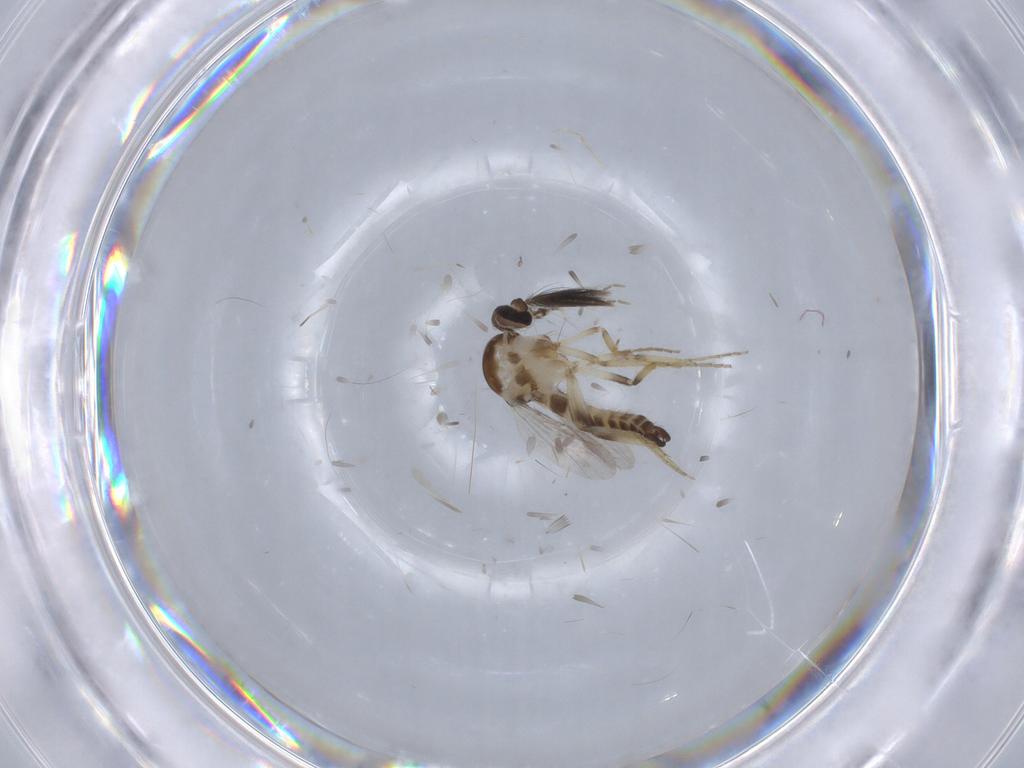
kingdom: Animalia
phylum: Arthropoda
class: Insecta
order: Diptera
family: Ceratopogonidae
